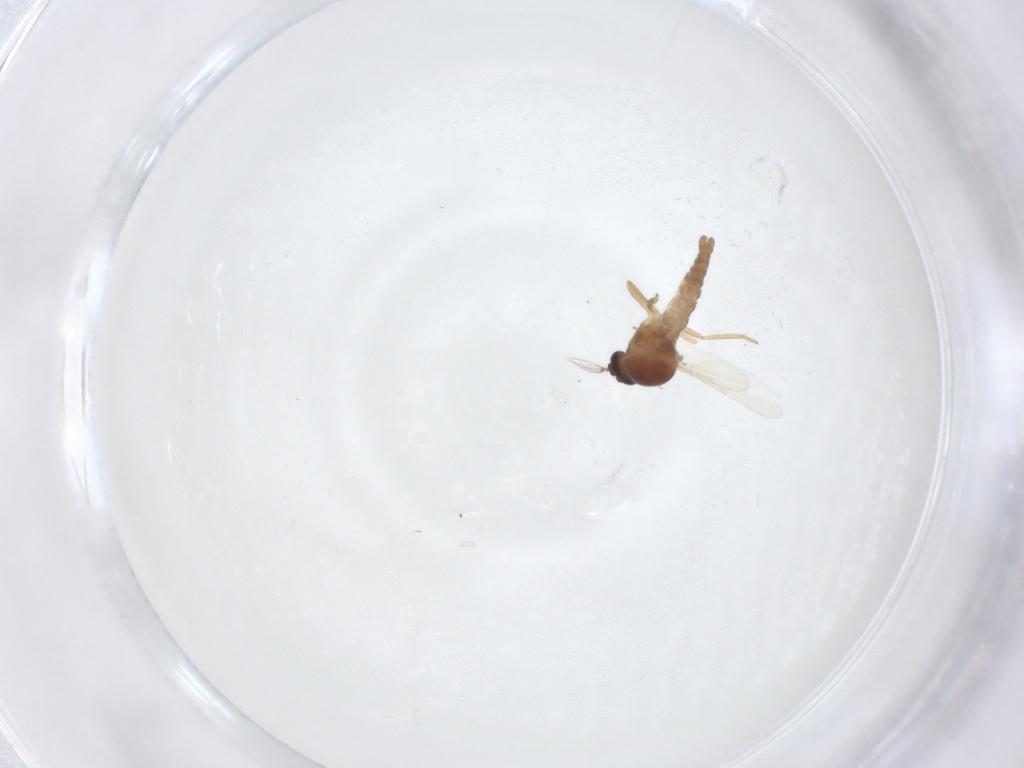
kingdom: Animalia
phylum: Arthropoda
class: Insecta
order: Diptera
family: Ceratopogonidae
